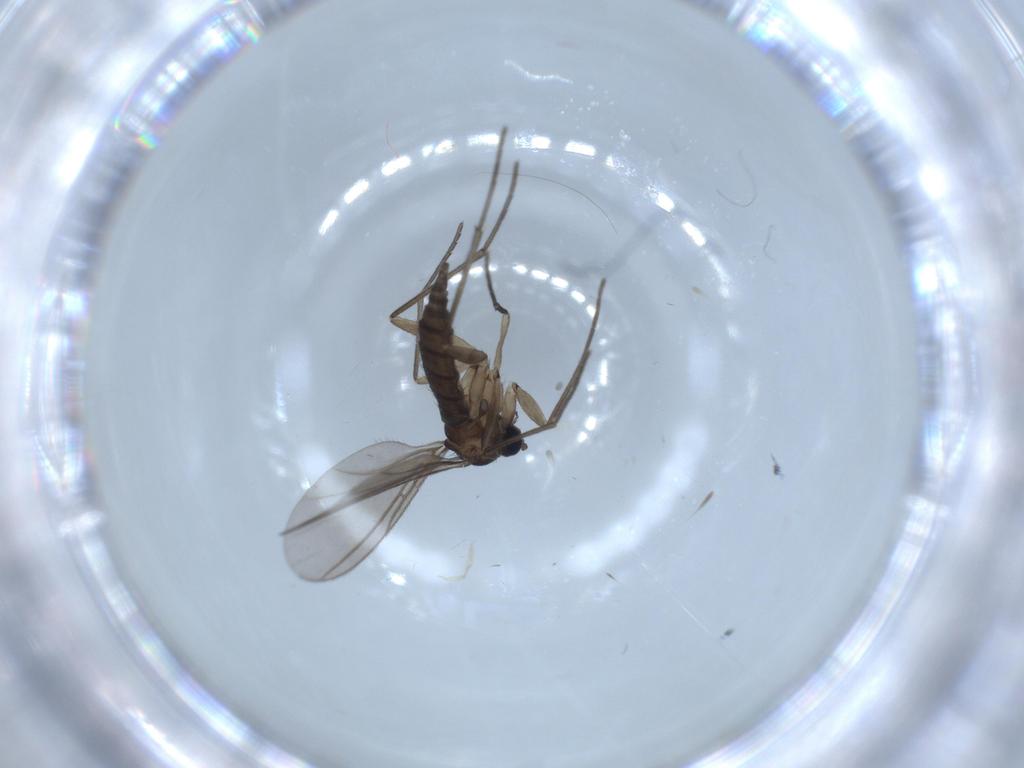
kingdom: Animalia
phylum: Arthropoda
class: Insecta
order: Diptera
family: Sciaridae
